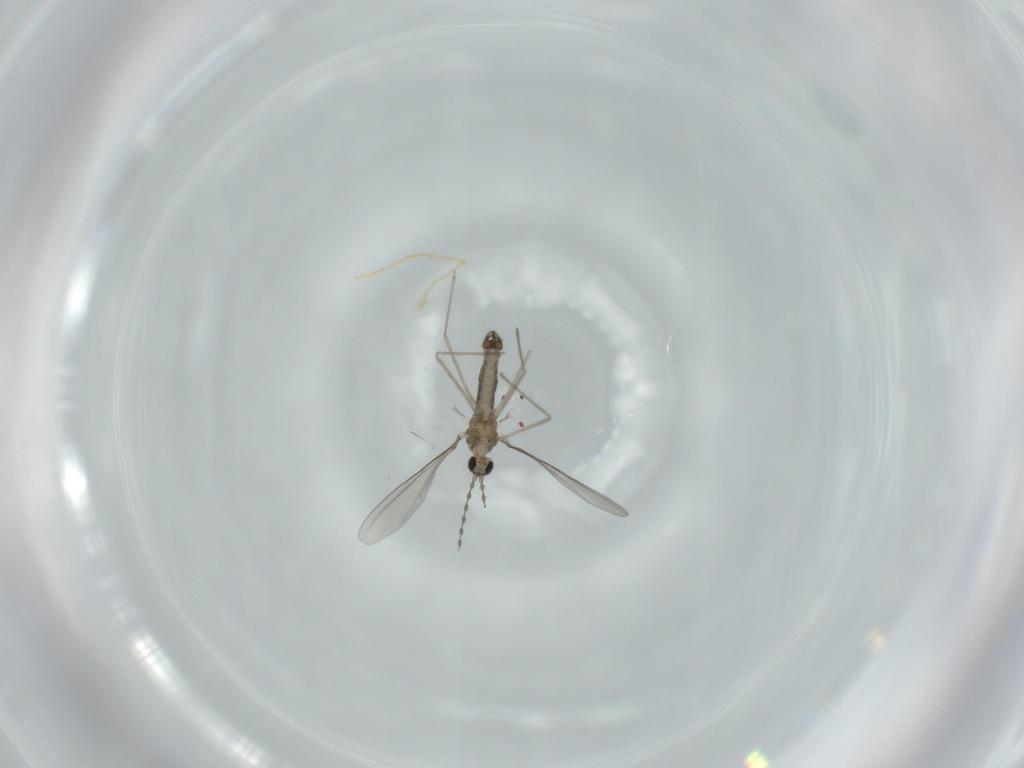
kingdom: Animalia
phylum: Arthropoda
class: Insecta
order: Diptera
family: Cecidomyiidae
